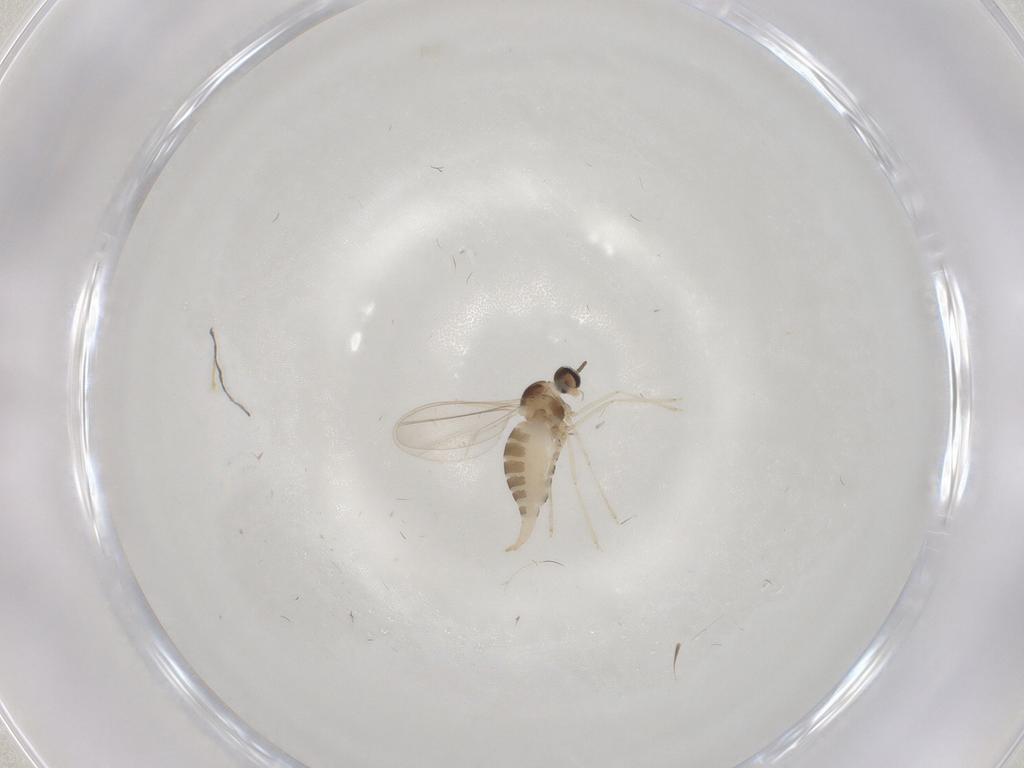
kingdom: Animalia
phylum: Arthropoda
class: Insecta
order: Diptera
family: Cecidomyiidae
